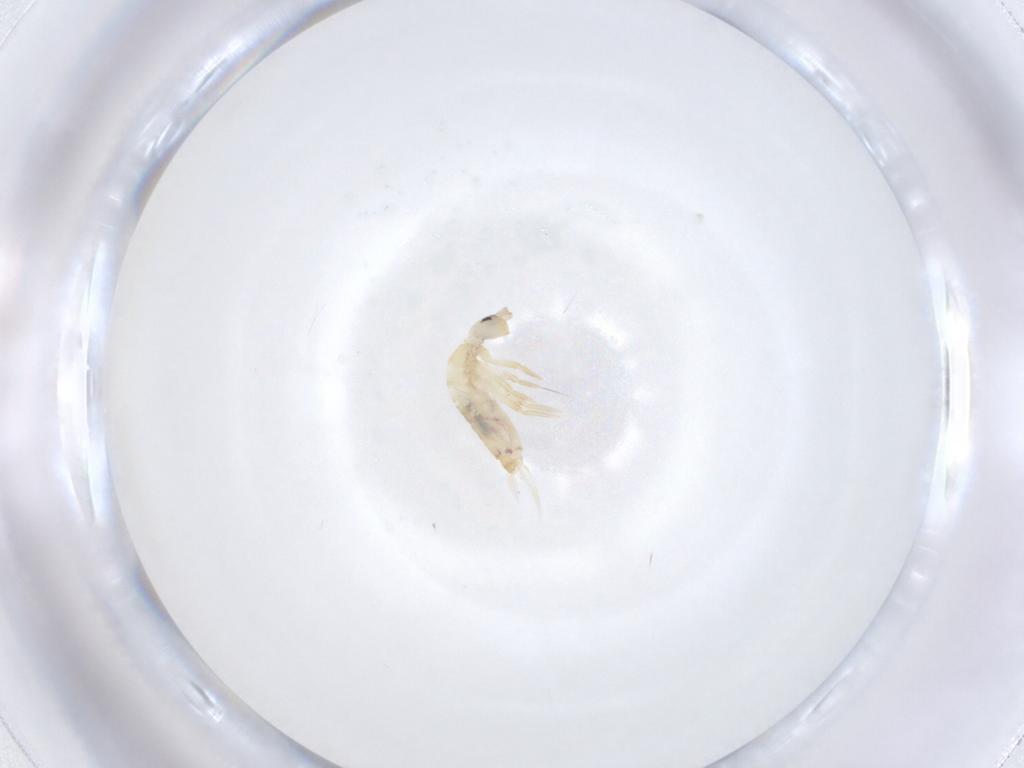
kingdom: Animalia
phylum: Arthropoda
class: Collembola
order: Entomobryomorpha
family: Entomobryidae
